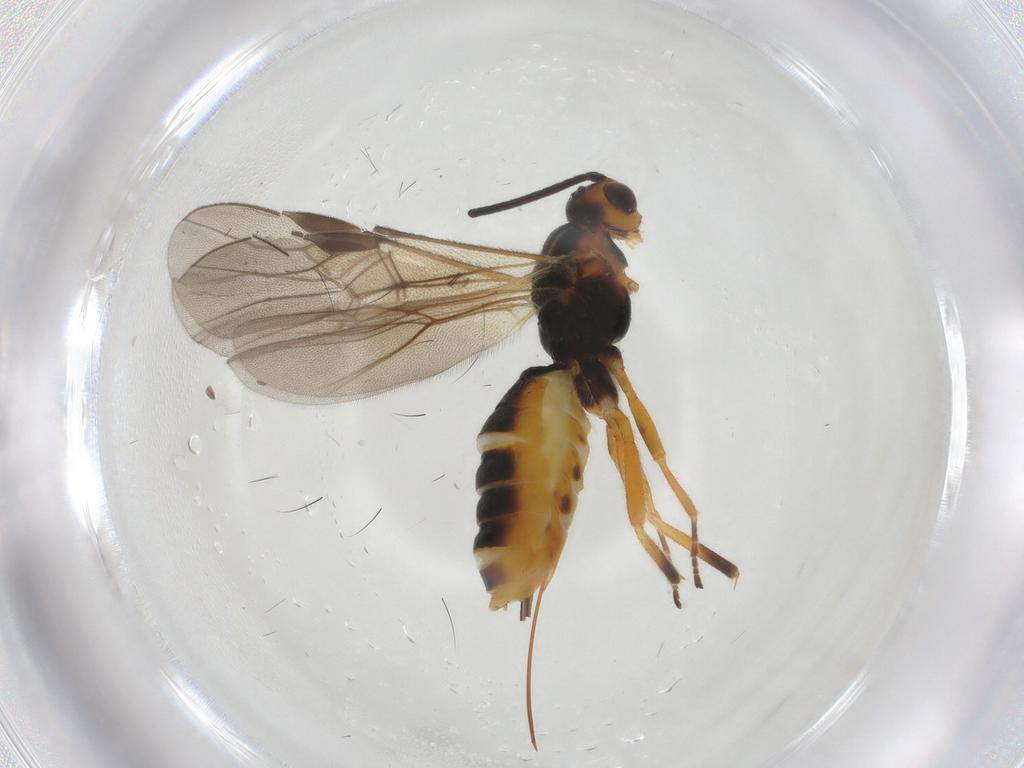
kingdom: Animalia
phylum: Arthropoda
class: Insecta
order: Hymenoptera
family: Braconidae
